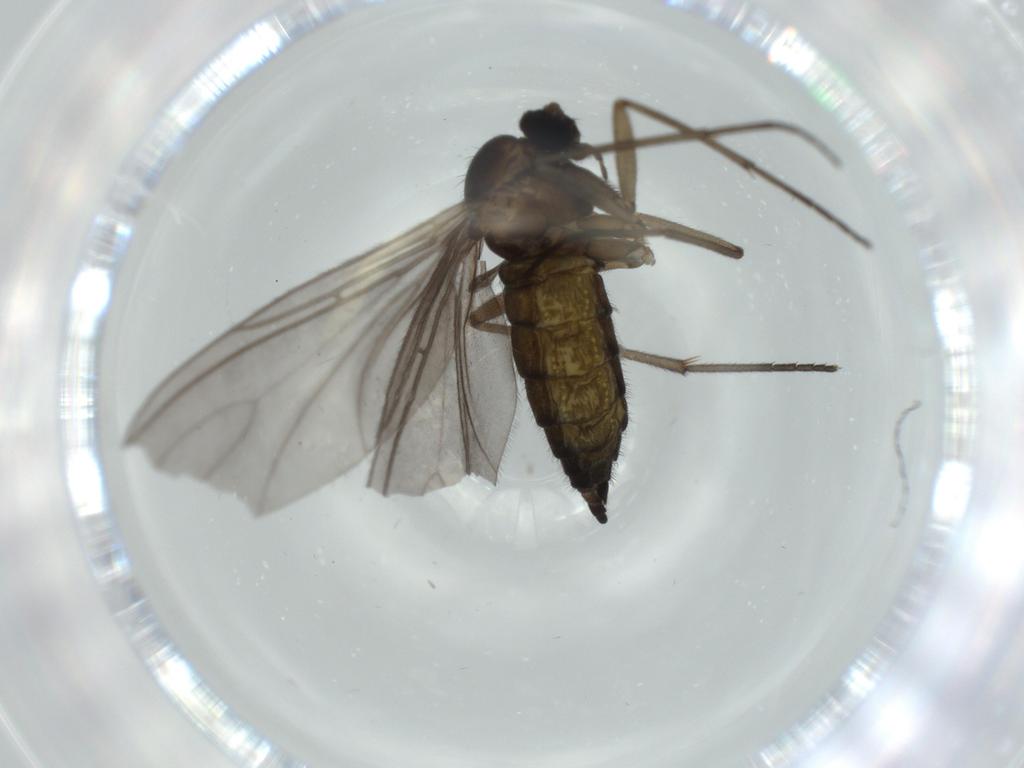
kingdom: Animalia
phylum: Arthropoda
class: Insecta
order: Diptera
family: Sciaridae
